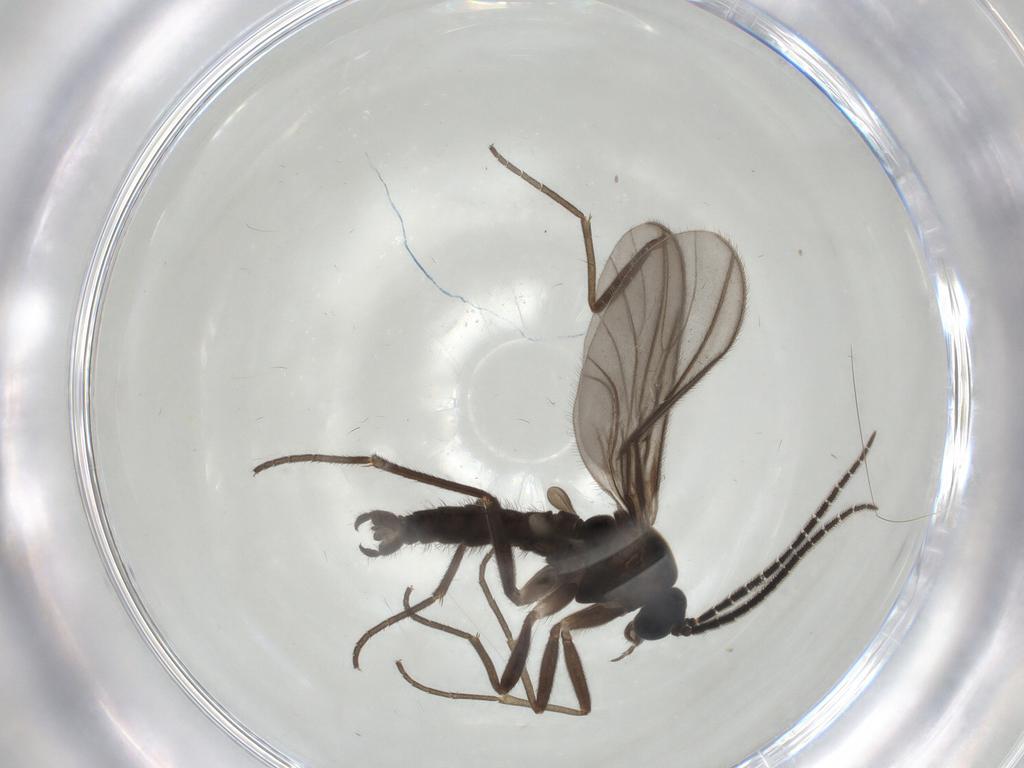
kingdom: Animalia
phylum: Arthropoda
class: Insecta
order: Diptera
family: Sciaridae
